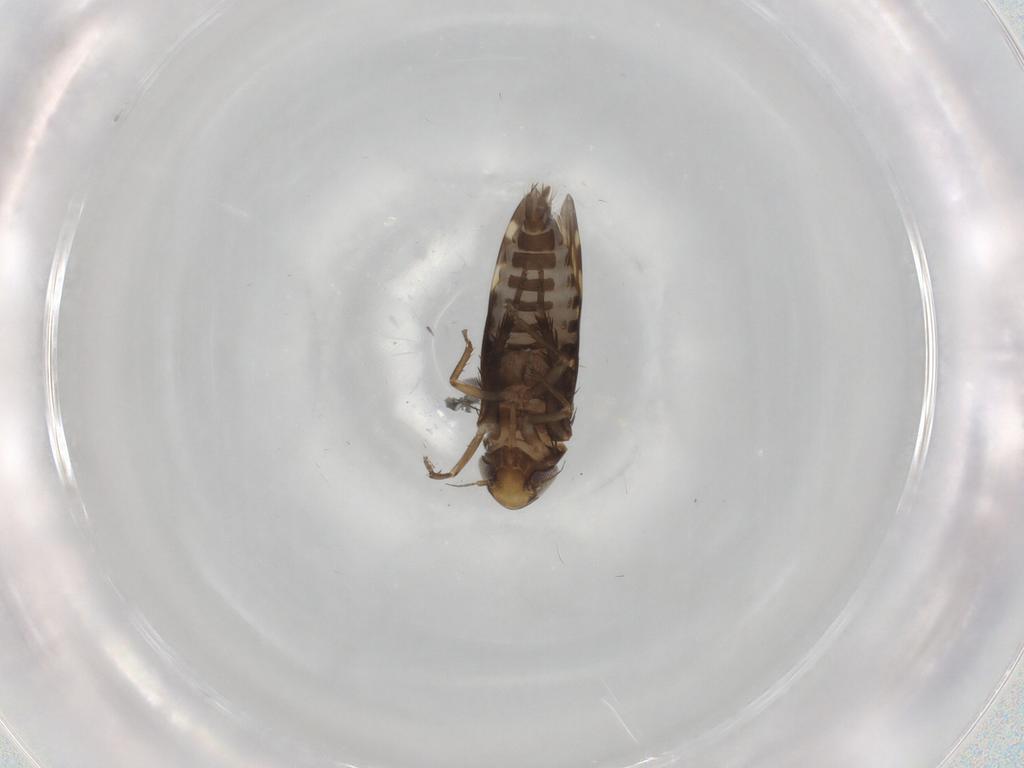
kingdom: Animalia
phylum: Arthropoda
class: Insecta
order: Hemiptera
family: Cicadellidae
